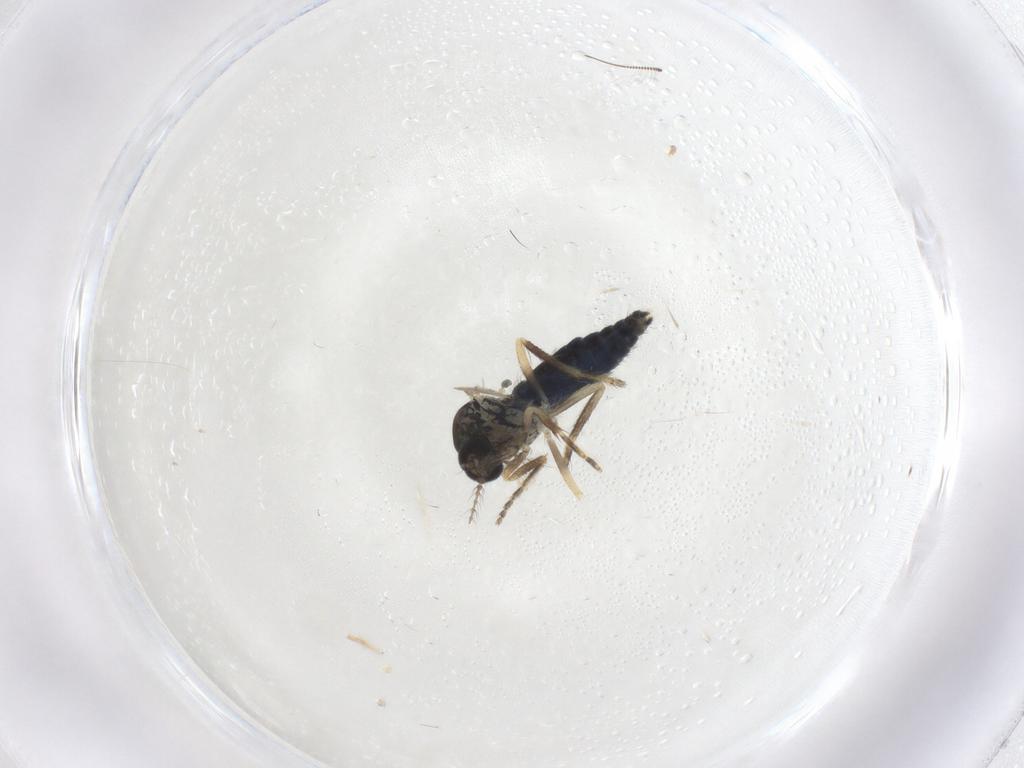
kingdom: Animalia
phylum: Arthropoda
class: Insecta
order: Diptera
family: Ceratopogonidae
